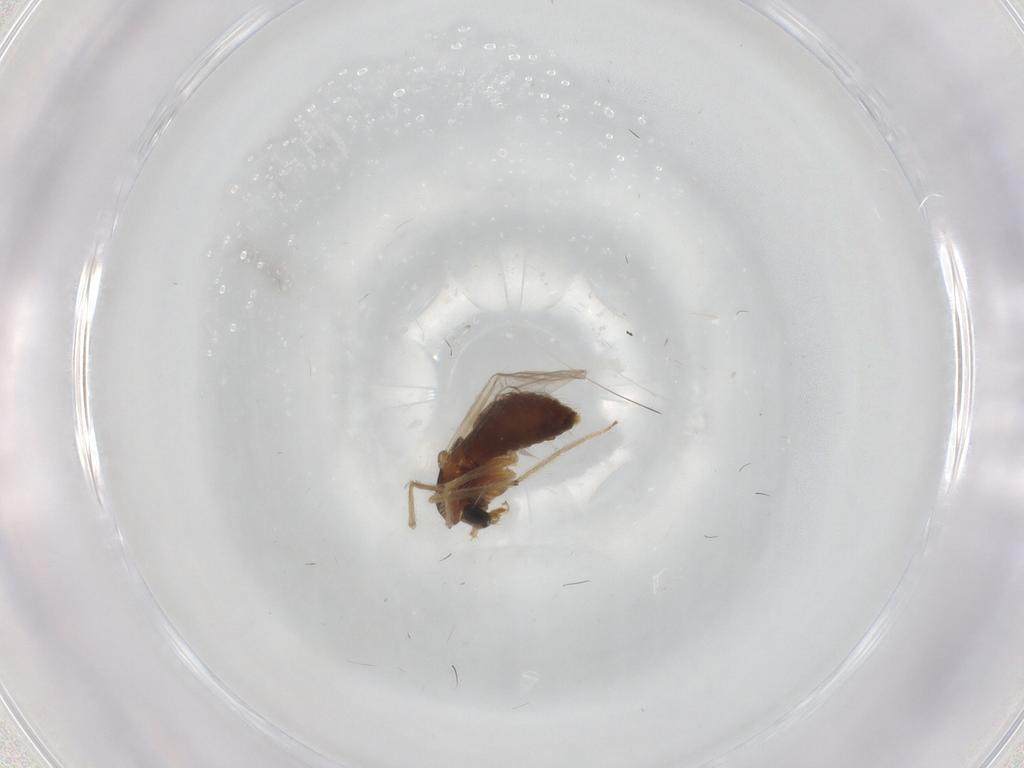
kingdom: Animalia
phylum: Arthropoda
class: Insecta
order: Diptera
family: Chironomidae
